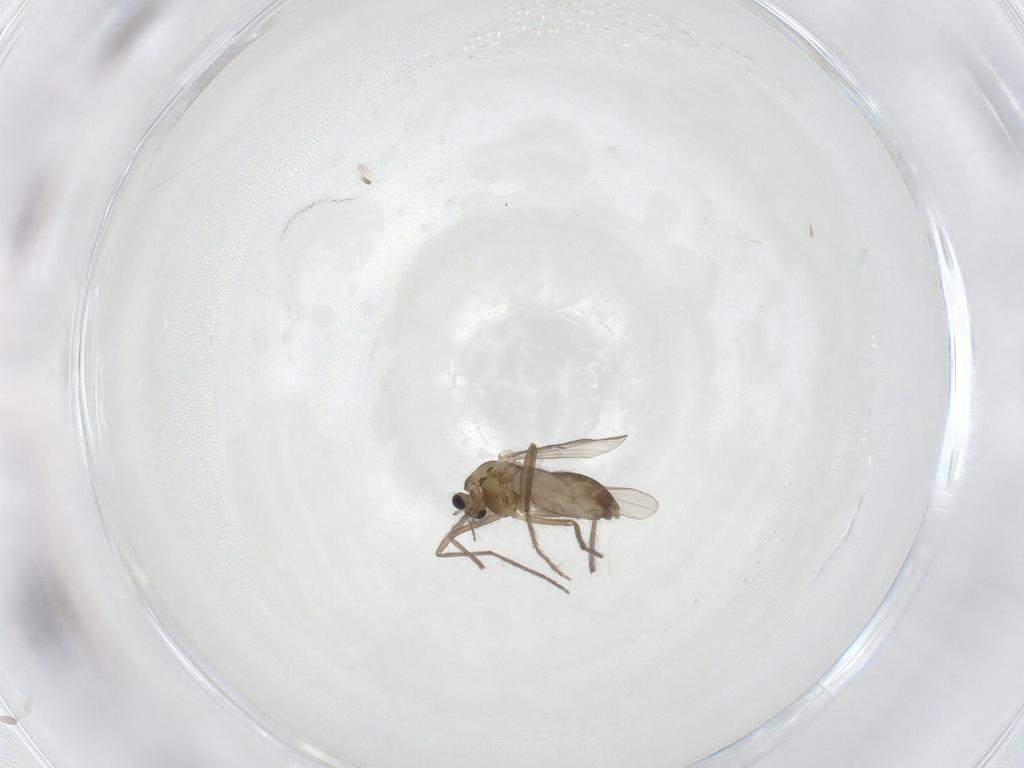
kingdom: Animalia
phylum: Arthropoda
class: Insecta
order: Diptera
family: Chironomidae
